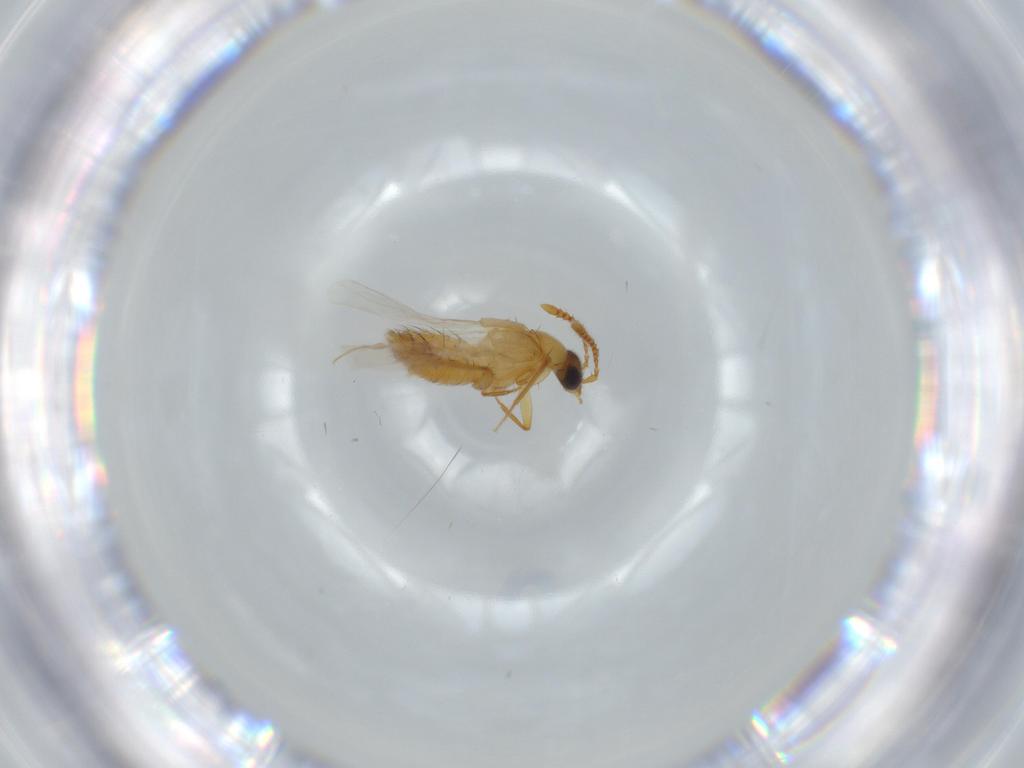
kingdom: Animalia
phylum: Arthropoda
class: Insecta
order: Coleoptera
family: Staphylinidae
